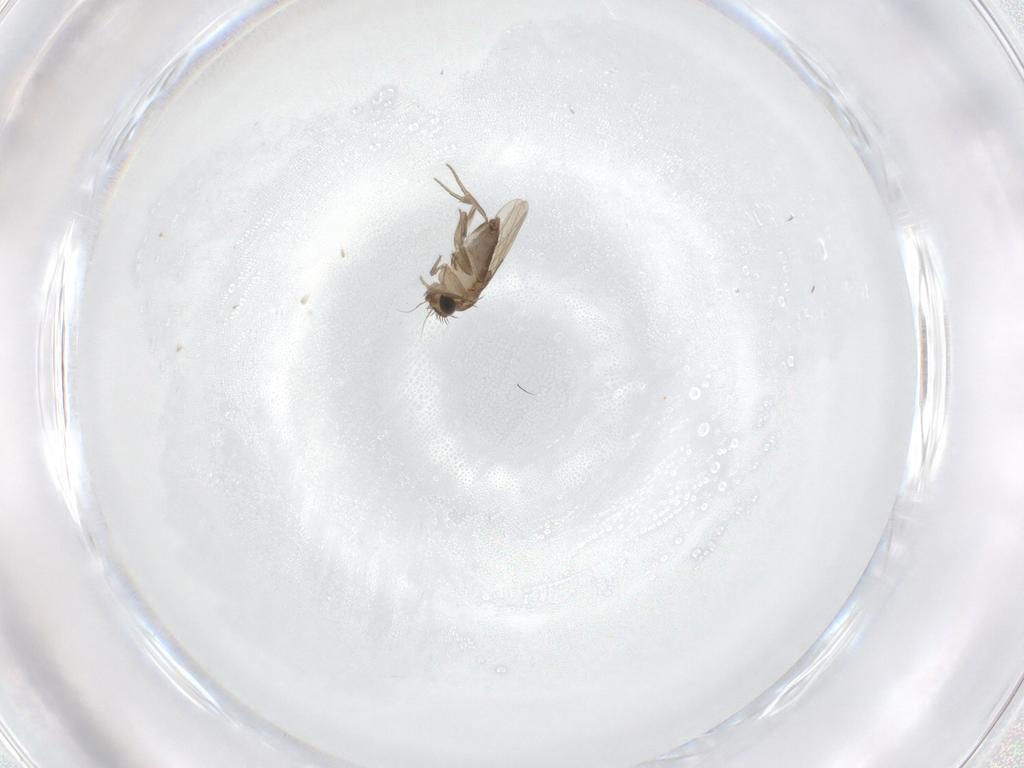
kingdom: Animalia
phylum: Arthropoda
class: Insecta
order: Diptera
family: Phoridae
